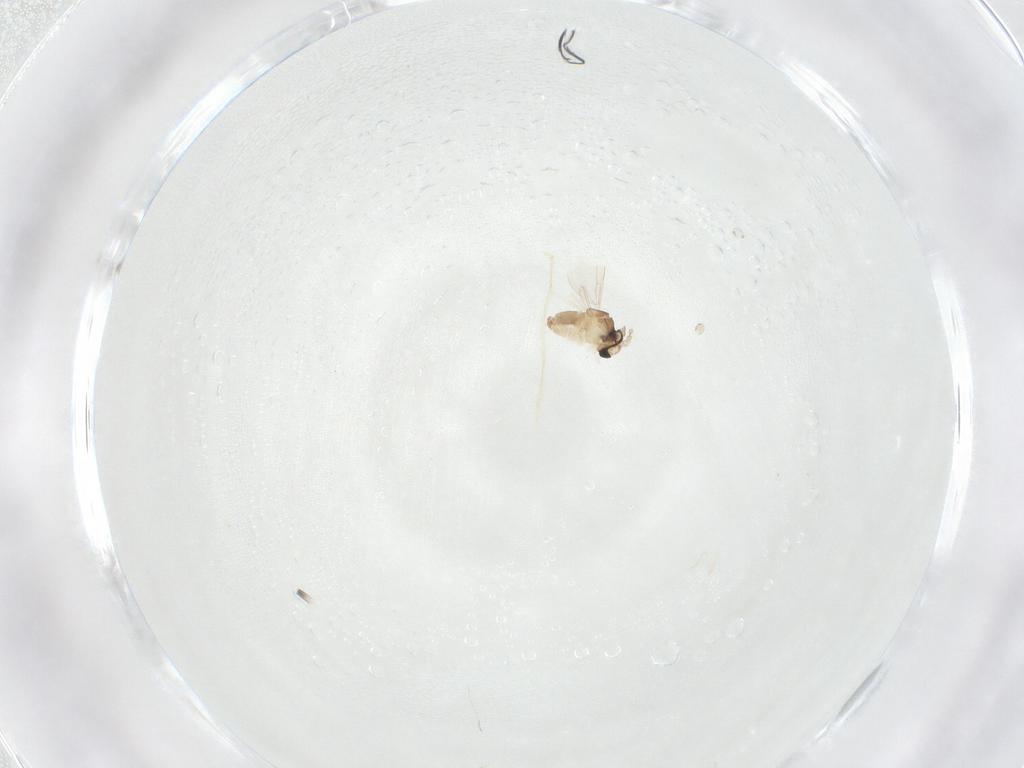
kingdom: Animalia
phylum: Arthropoda
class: Insecta
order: Diptera
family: Cecidomyiidae
